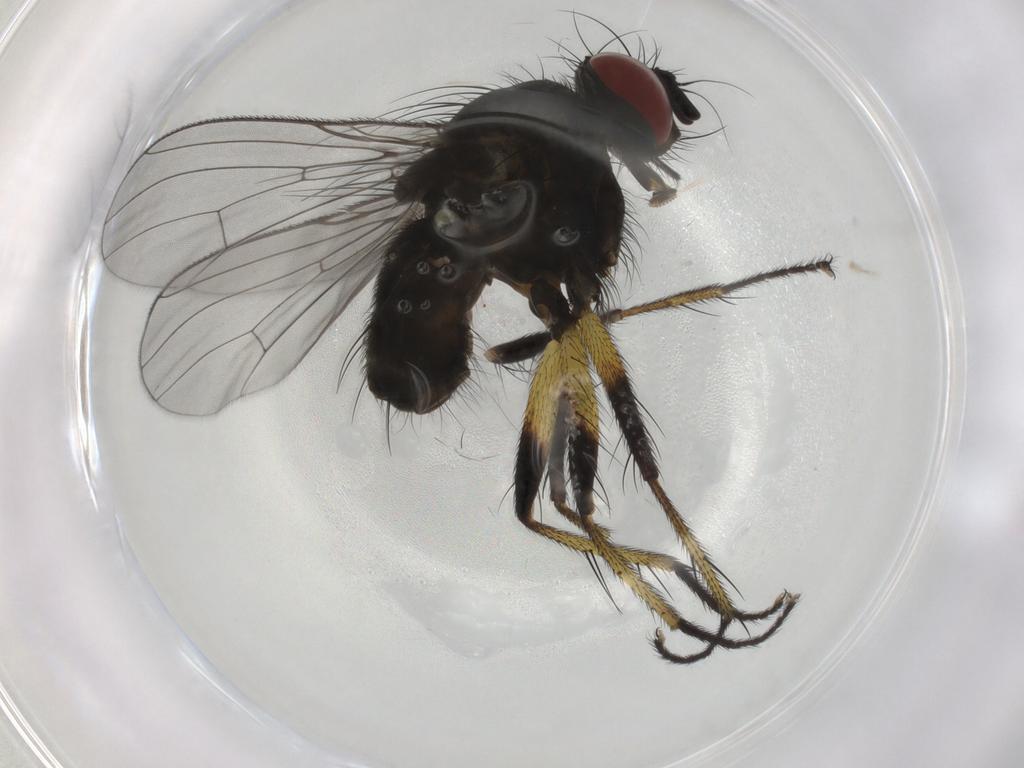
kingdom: Animalia
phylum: Arthropoda
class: Insecta
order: Diptera
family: Muscidae
